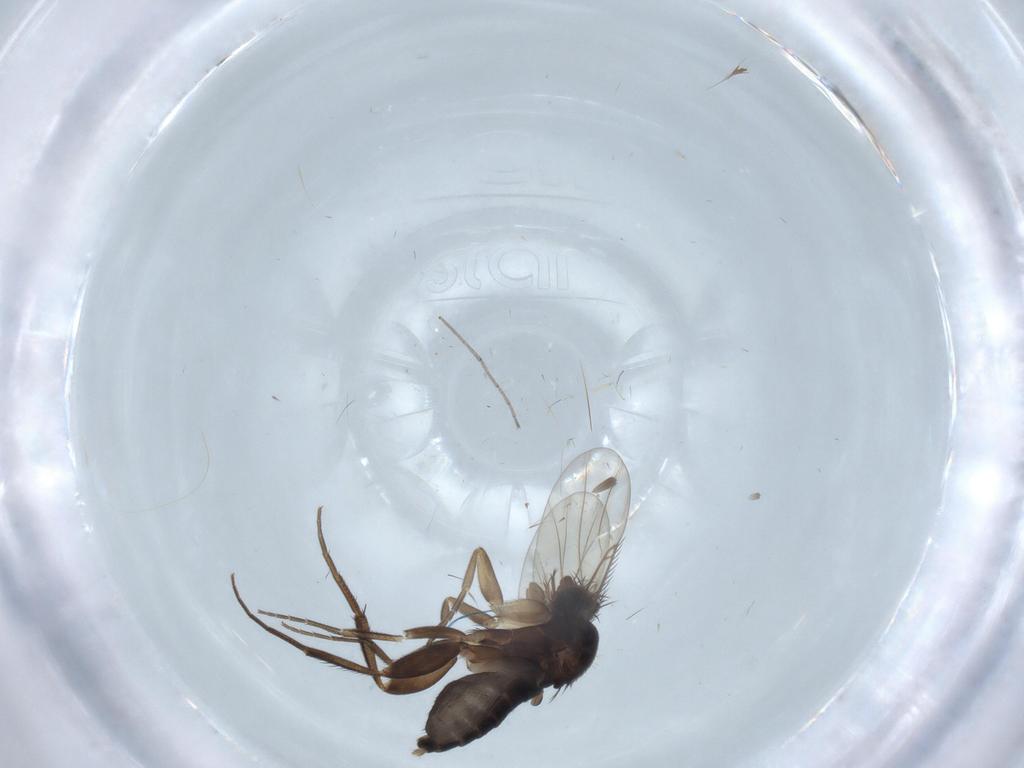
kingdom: Animalia
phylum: Arthropoda
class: Insecta
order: Diptera
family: Phoridae
